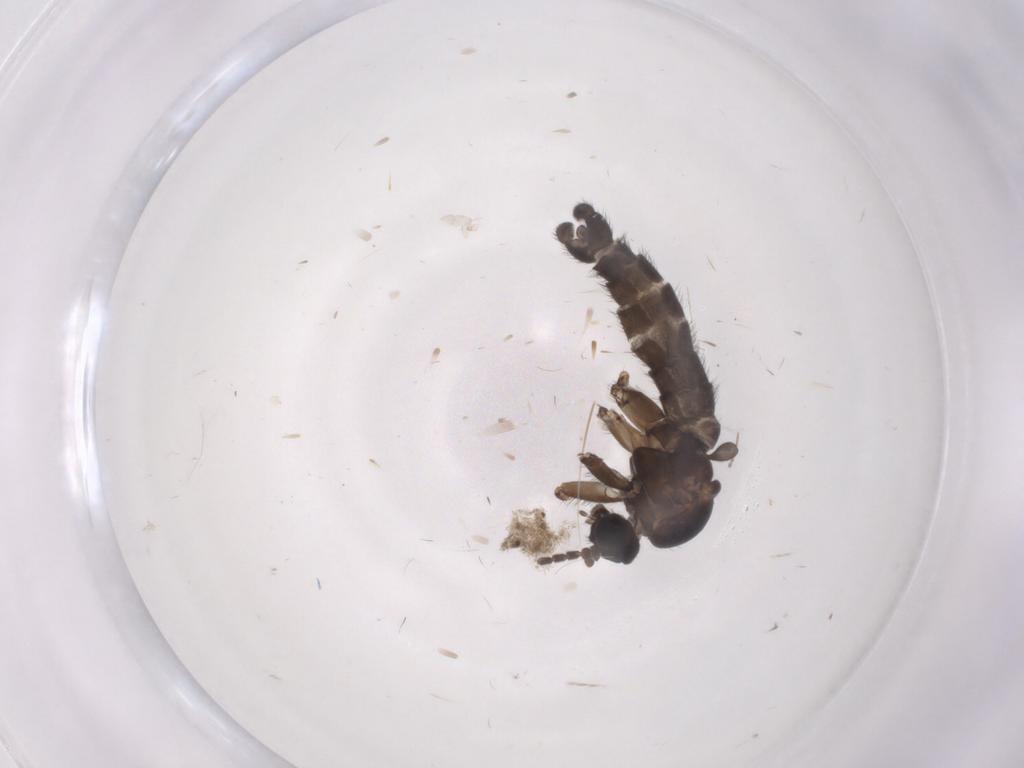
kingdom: Animalia
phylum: Arthropoda
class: Insecta
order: Diptera
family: Sciaridae
